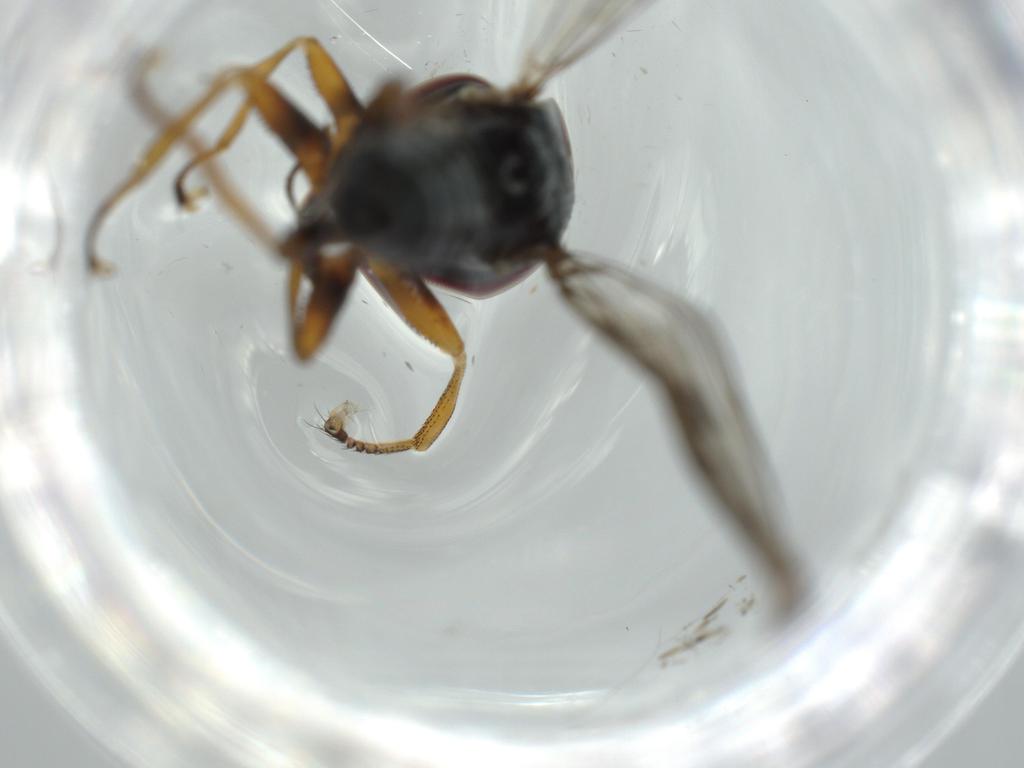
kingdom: Animalia
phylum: Arthropoda
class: Insecta
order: Diptera
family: Pipunculidae
